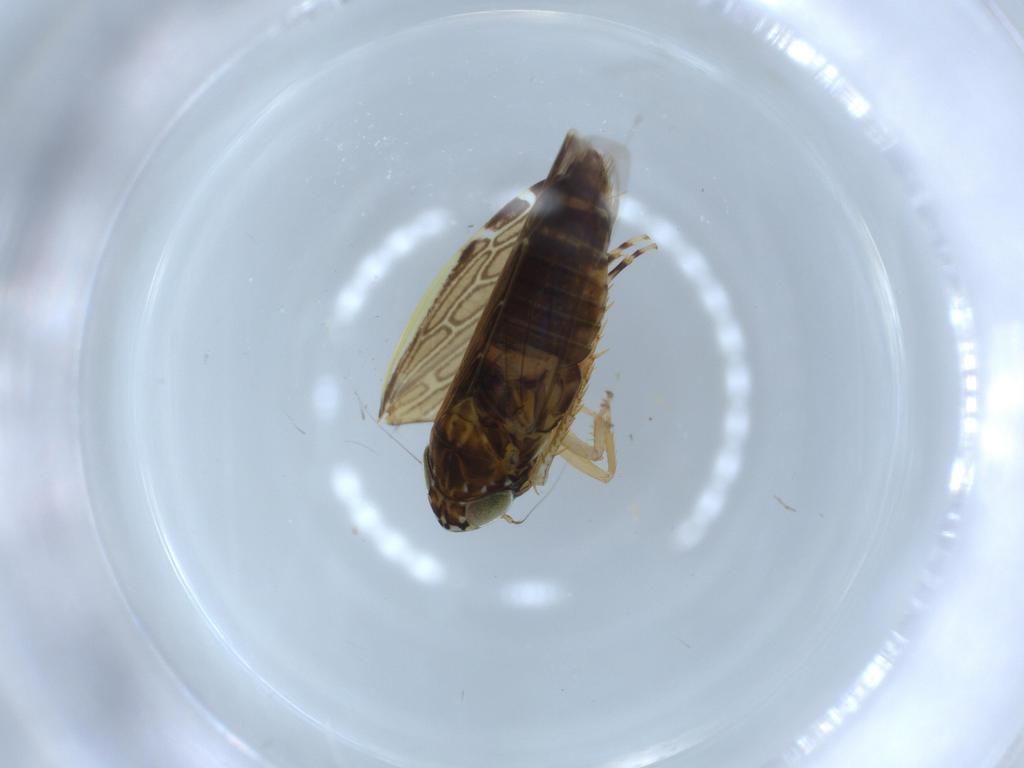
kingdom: Animalia
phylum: Arthropoda
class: Insecta
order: Hemiptera
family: Cicadellidae
